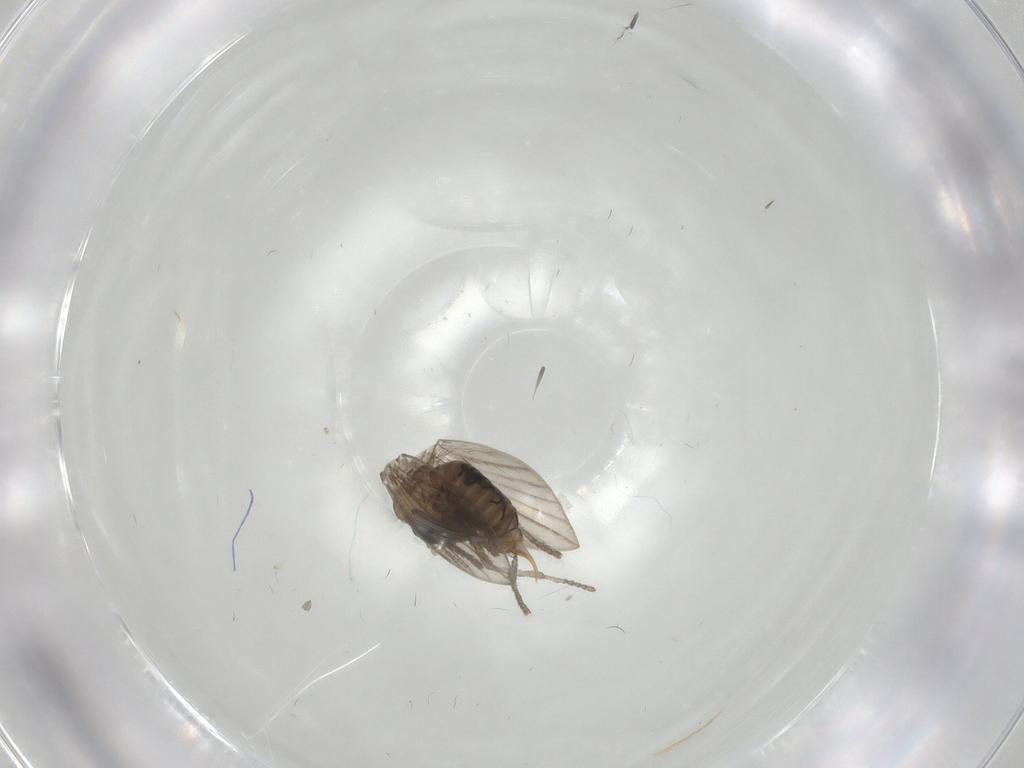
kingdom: Animalia
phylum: Arthropoda
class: Insecta
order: Diptera
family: Psychodidae
